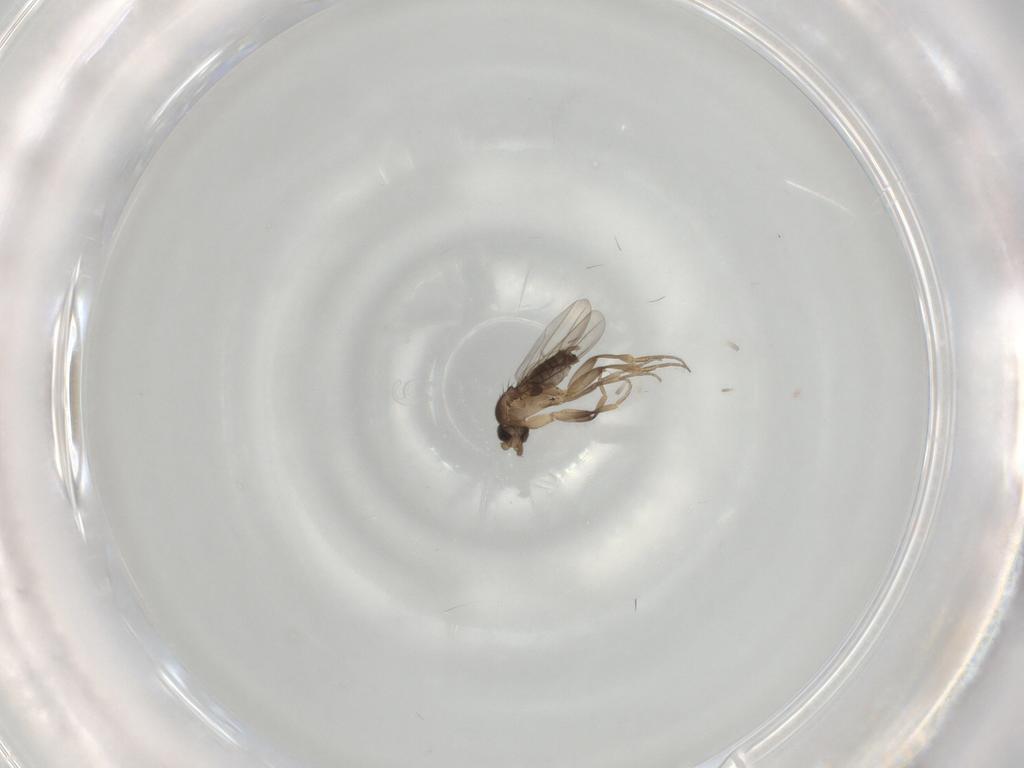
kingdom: Animalia
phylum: Arthropoda
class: Insecta
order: Diptera
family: Phoridae
